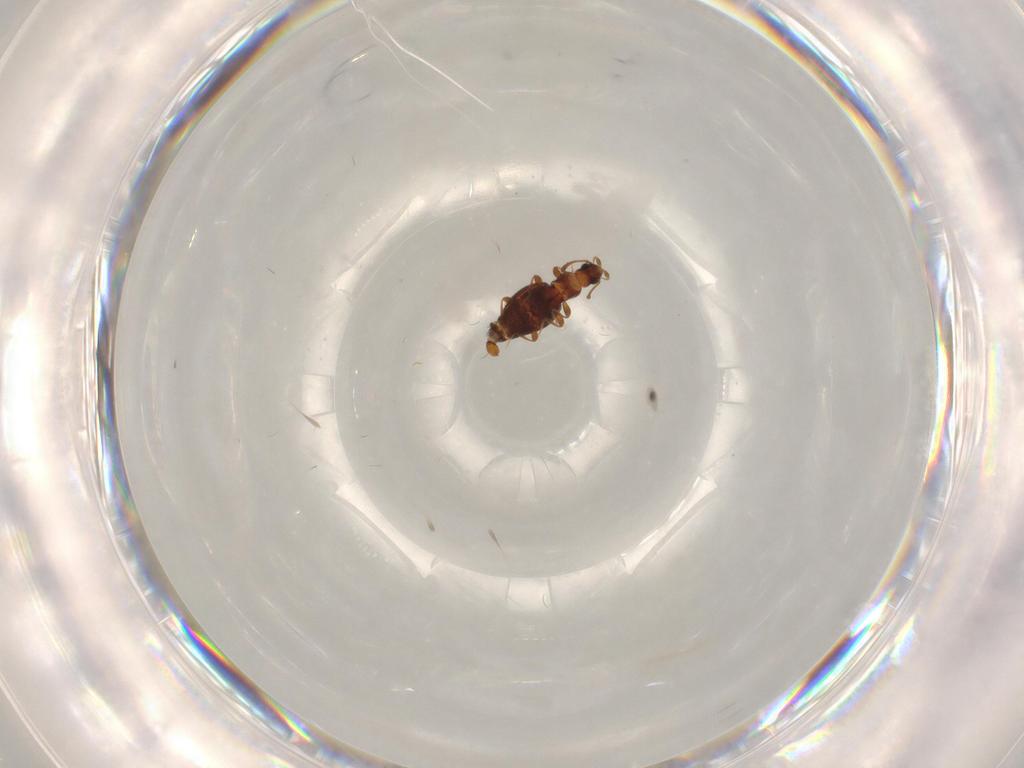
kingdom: Animalia
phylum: Arthropoda
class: Insecta
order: Coleoptera
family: Elateridae
